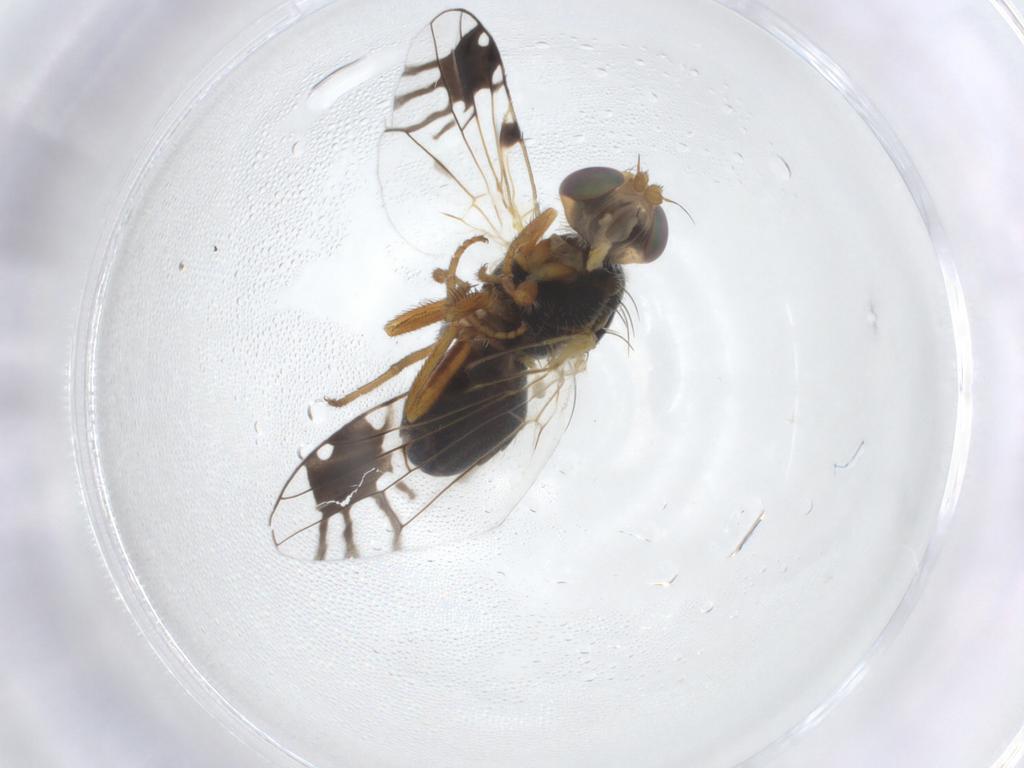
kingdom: Animalia
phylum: Arthropoda
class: Insecta
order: Diptera
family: Tephritidae
